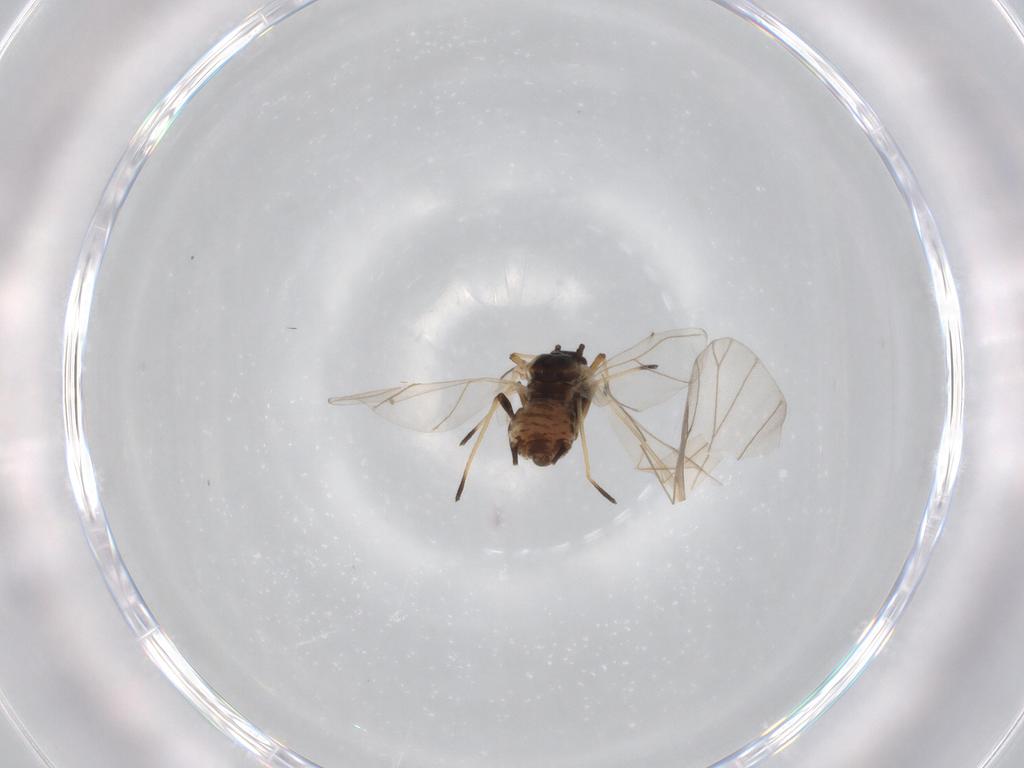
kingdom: Animalia
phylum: Arthropoda
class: Insecta
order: Hemiptera
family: Aphididae
